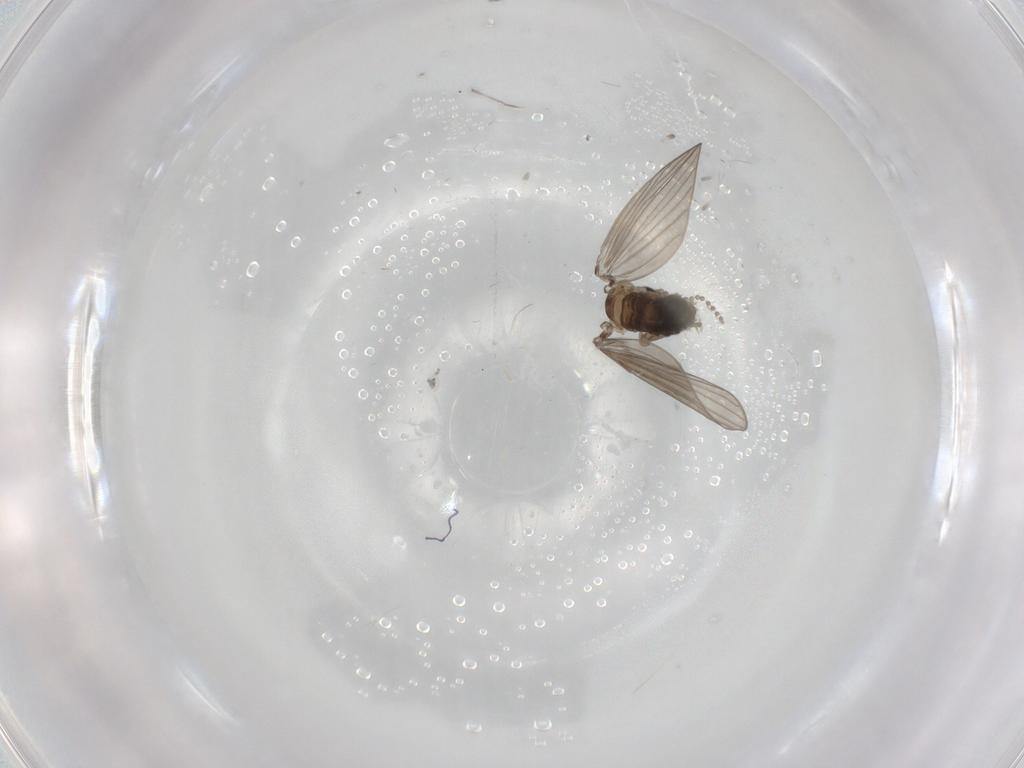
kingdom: Animalia
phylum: Arthropoda
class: Insecta
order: Diptera
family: Psychodidae
